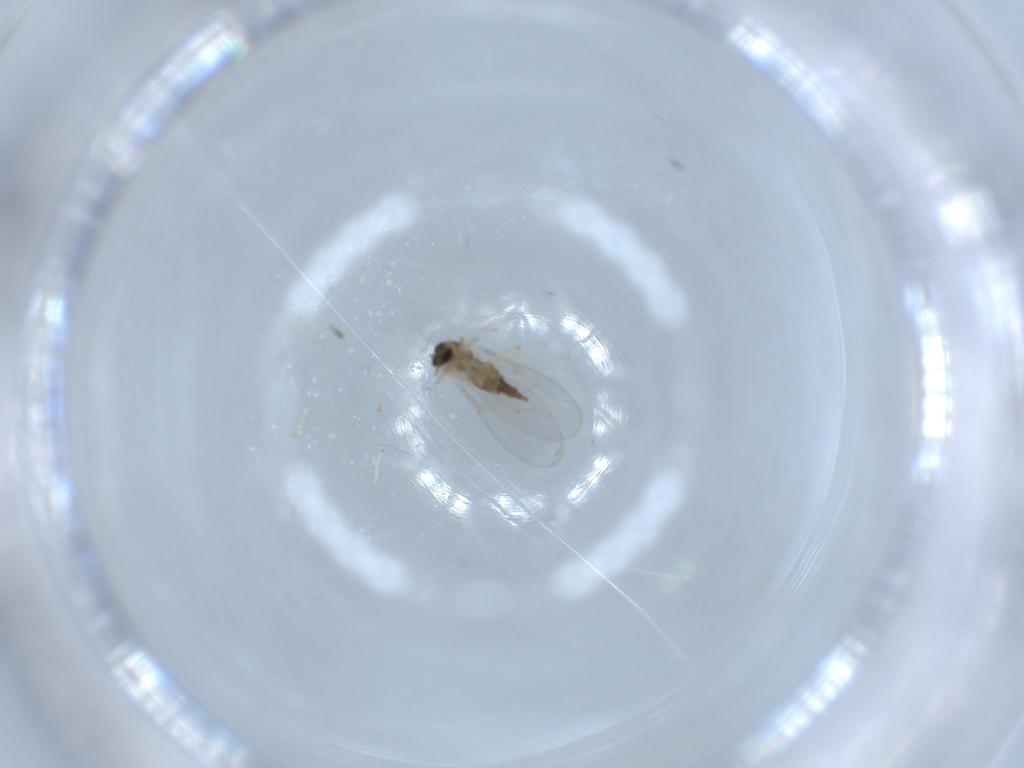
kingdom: Animalia
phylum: Arthropoda
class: Insecta
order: Diptera
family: Cecidomyiidae
